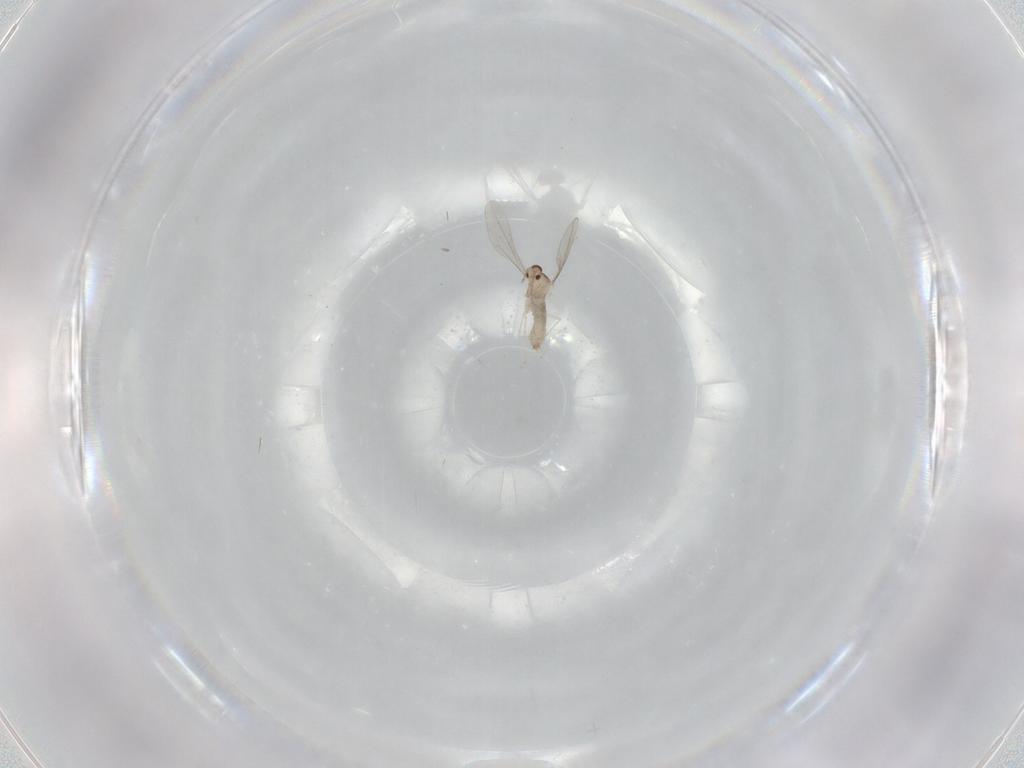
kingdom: Animalia
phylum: Arthropoda
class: Insecta
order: Diptera
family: Cecidomyiidae
